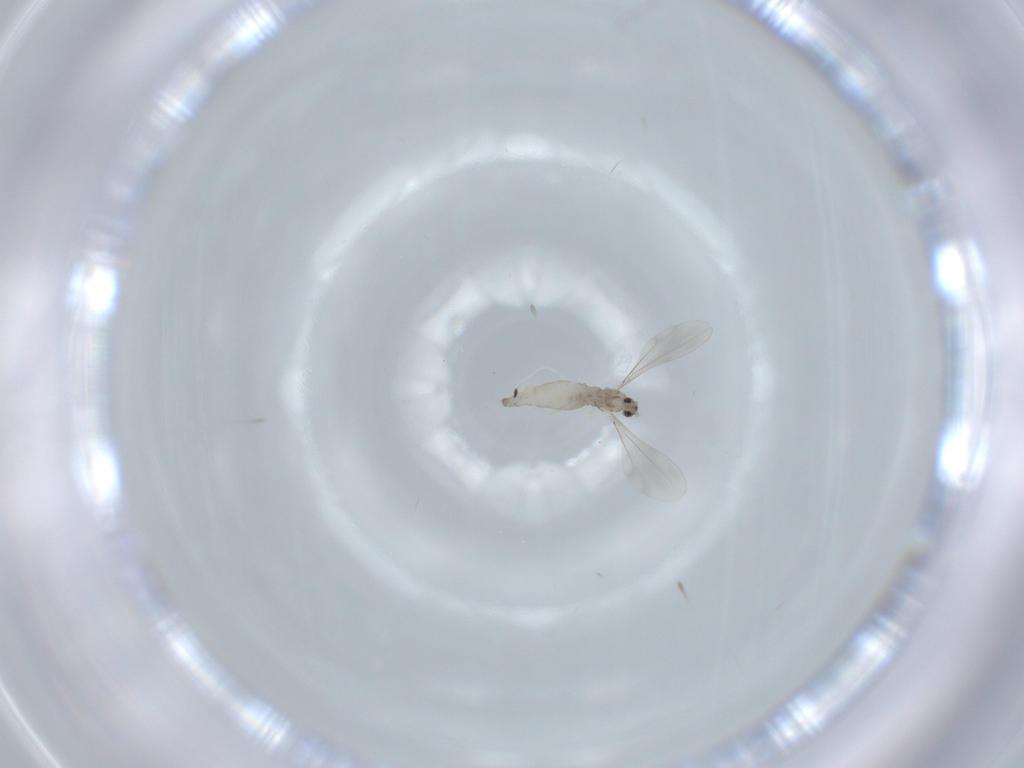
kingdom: Animalia
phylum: Arthropoda
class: Insecta
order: Diptera
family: Cecidomyiidae
